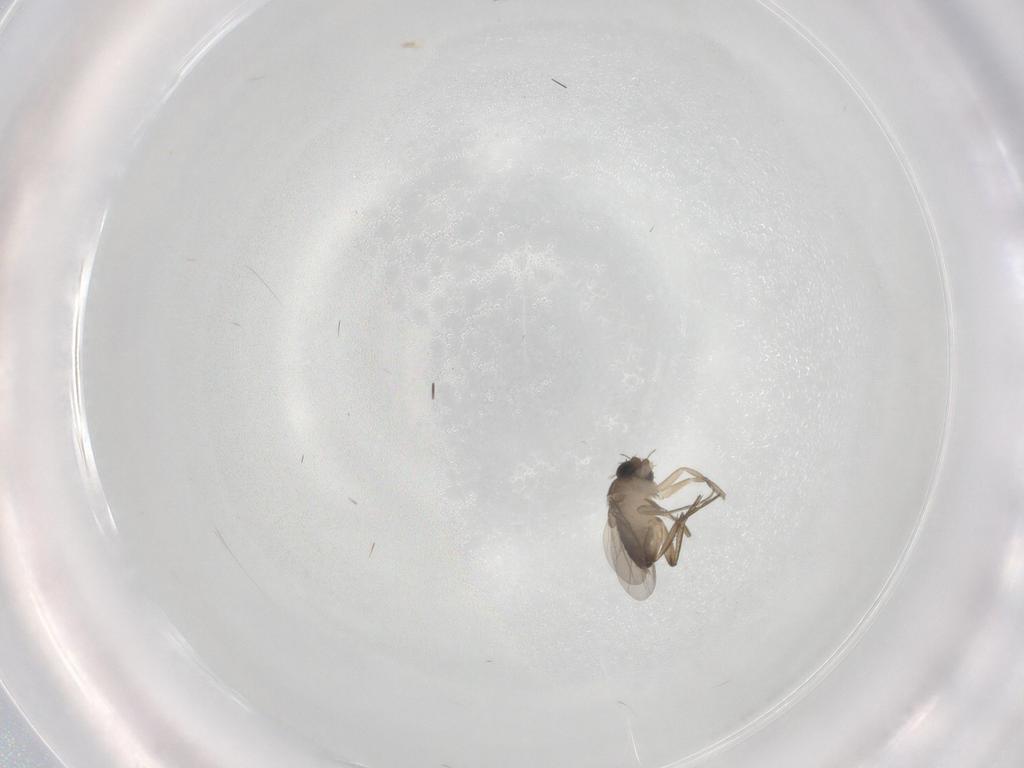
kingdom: Animalia
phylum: Arthropoda
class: Insecta
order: Diptera
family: Phoridae
